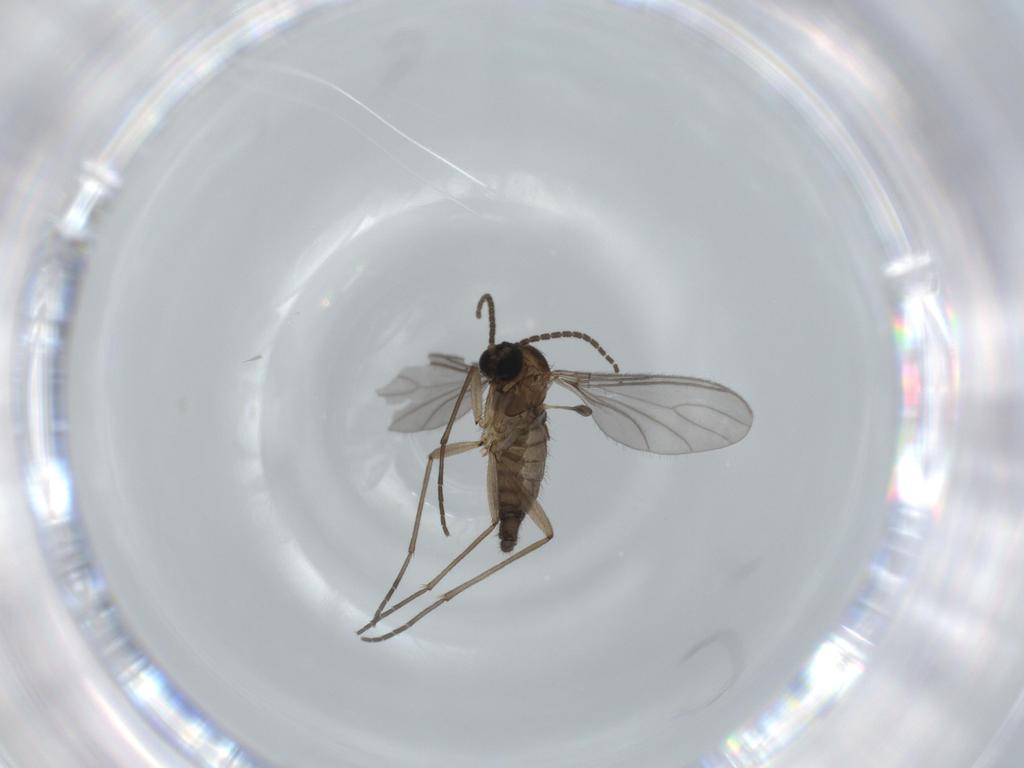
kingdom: Animalia
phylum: Arthropoda
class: Insecta
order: Diptera
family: Sciaridae
